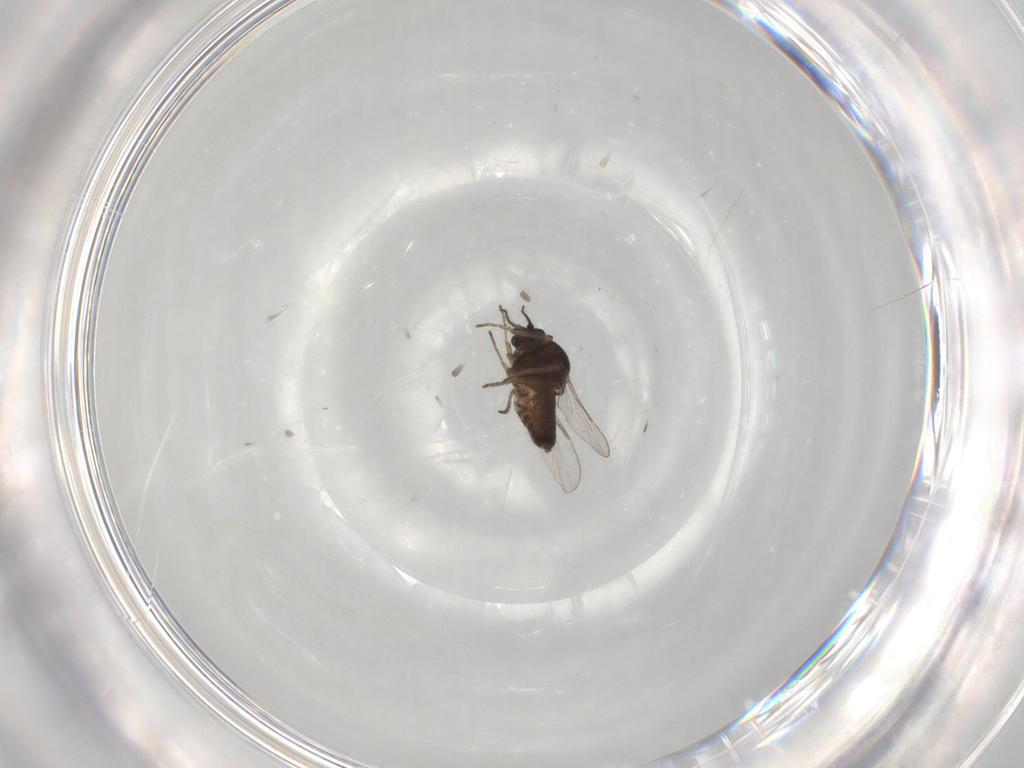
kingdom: Animalia
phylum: Arthropoda
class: Insecta
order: Diptera
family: Ceratopogonidae
